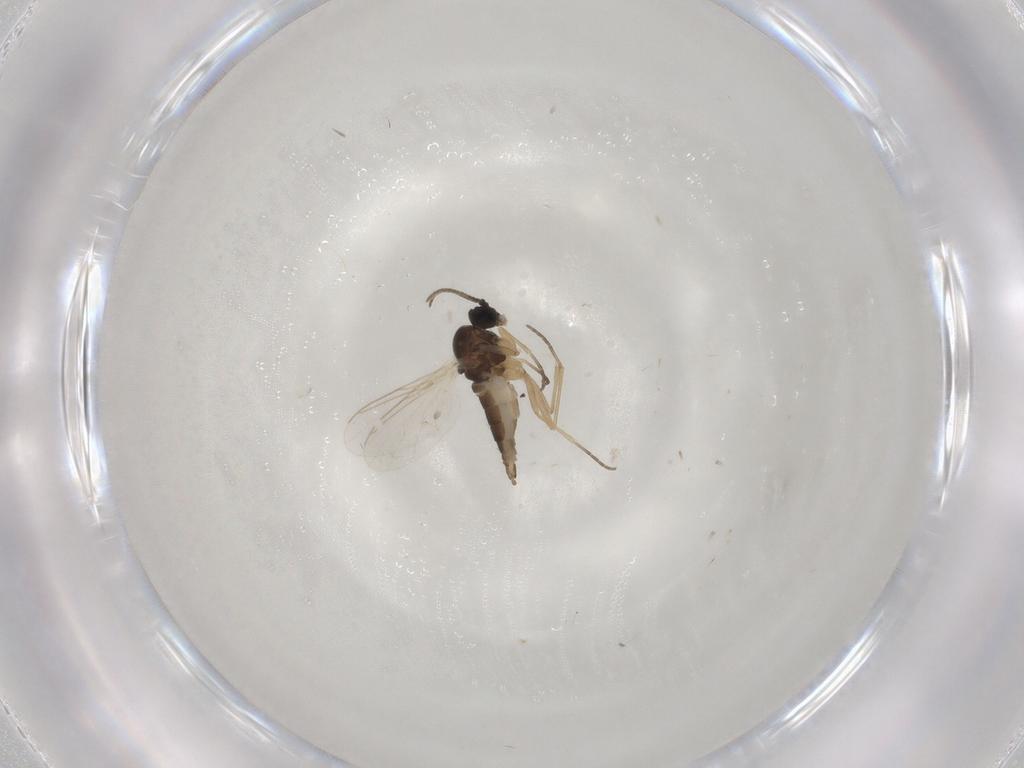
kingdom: Animalia
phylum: Arthropoda
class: Insecta
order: Diptera
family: Sciaridae
